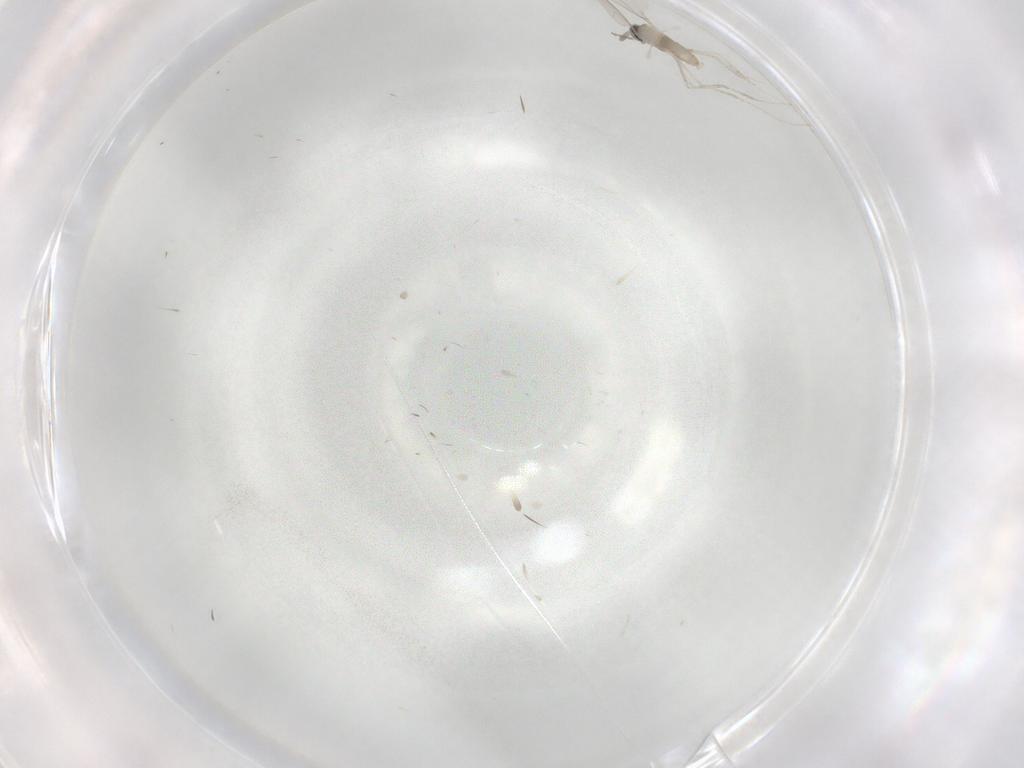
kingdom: Animalia
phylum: Arthropoda
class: Insecta
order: Diptera
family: Cecidomyiidae
